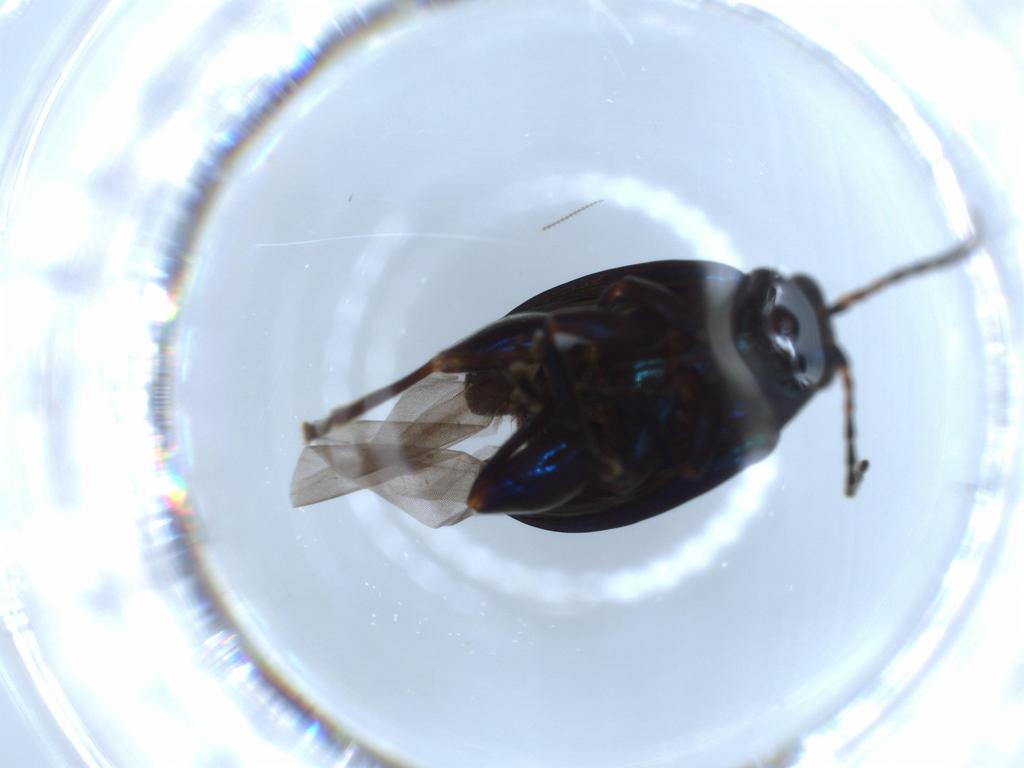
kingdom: Animalia
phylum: Arthropoda
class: Insecta
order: Coleoptera
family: Chrysomelidae
